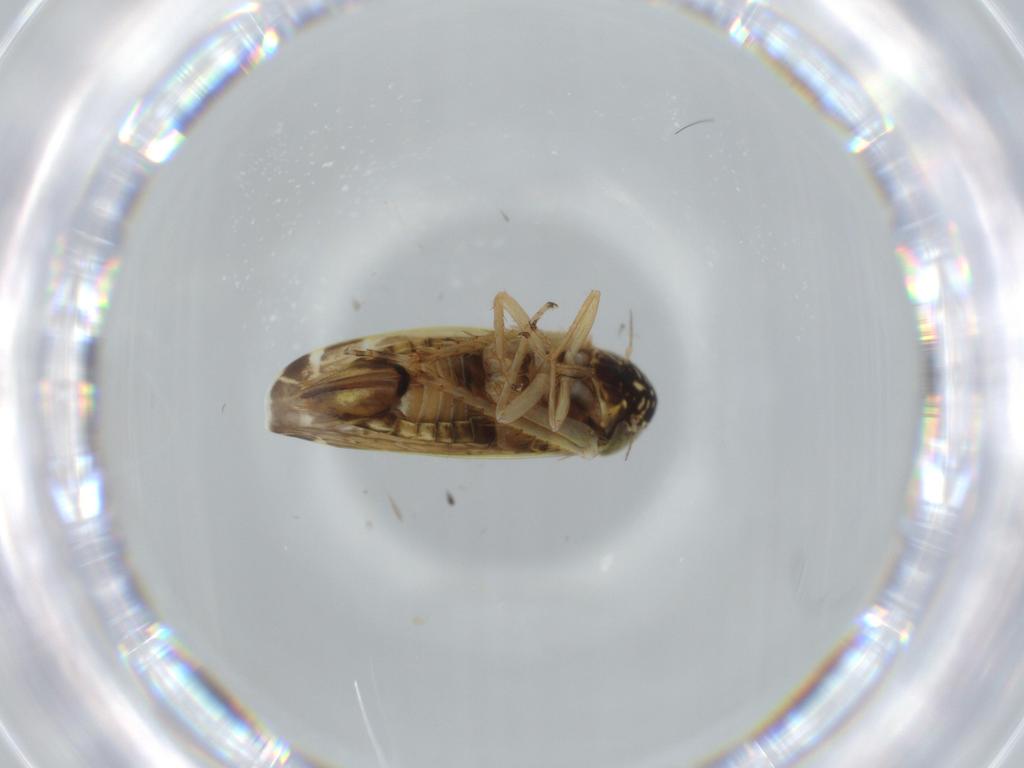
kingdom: Animalia
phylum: Arthropoda
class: Insecta
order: Hemiptera
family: Cicadellidae
